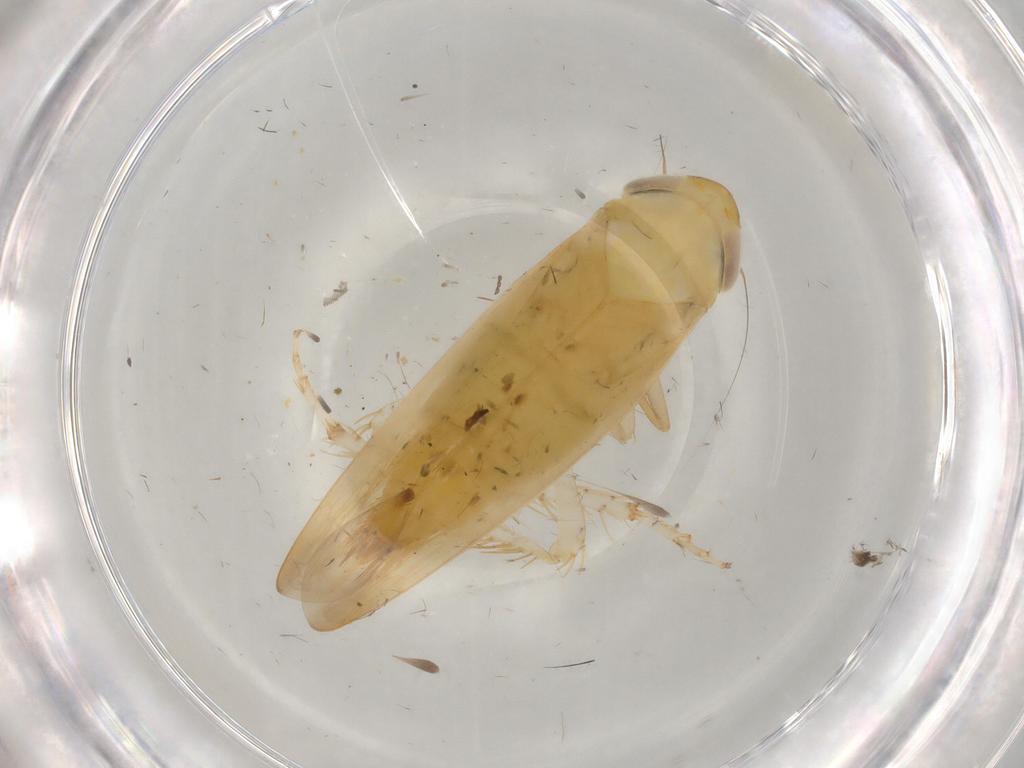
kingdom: Animalia
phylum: Arthropoda
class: Insecta
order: Hemiptera
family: Cicadellidae
